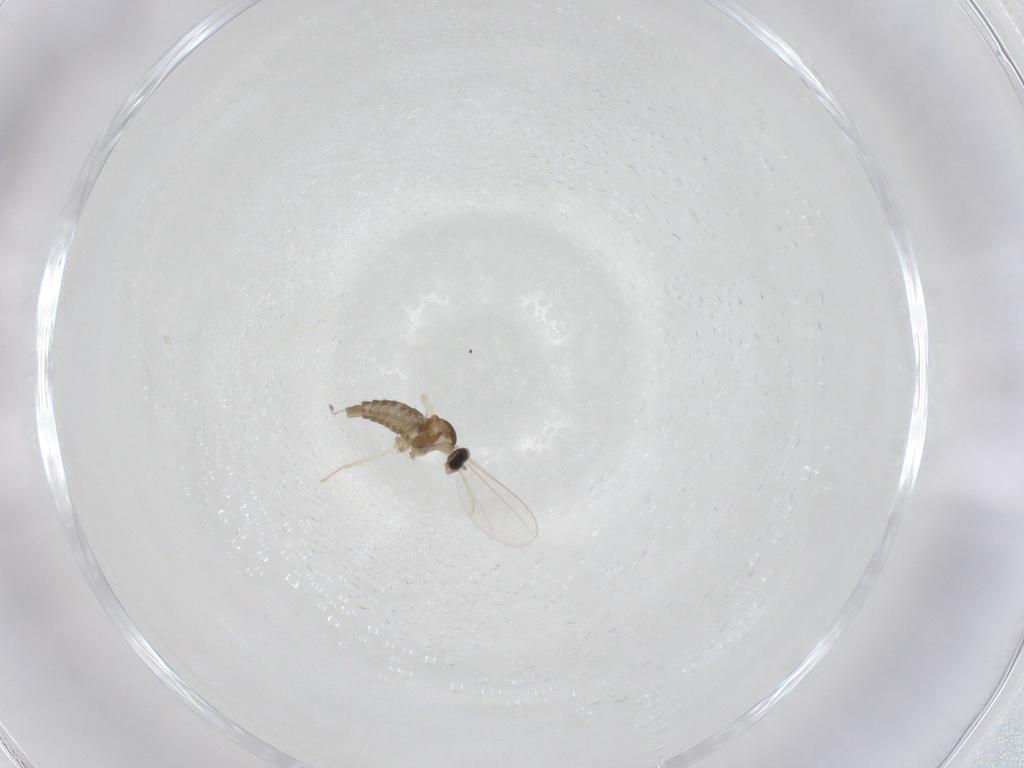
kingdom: Animalia
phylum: Arthropoda
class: Insecta
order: Diptera
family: Cecidomyiidae
